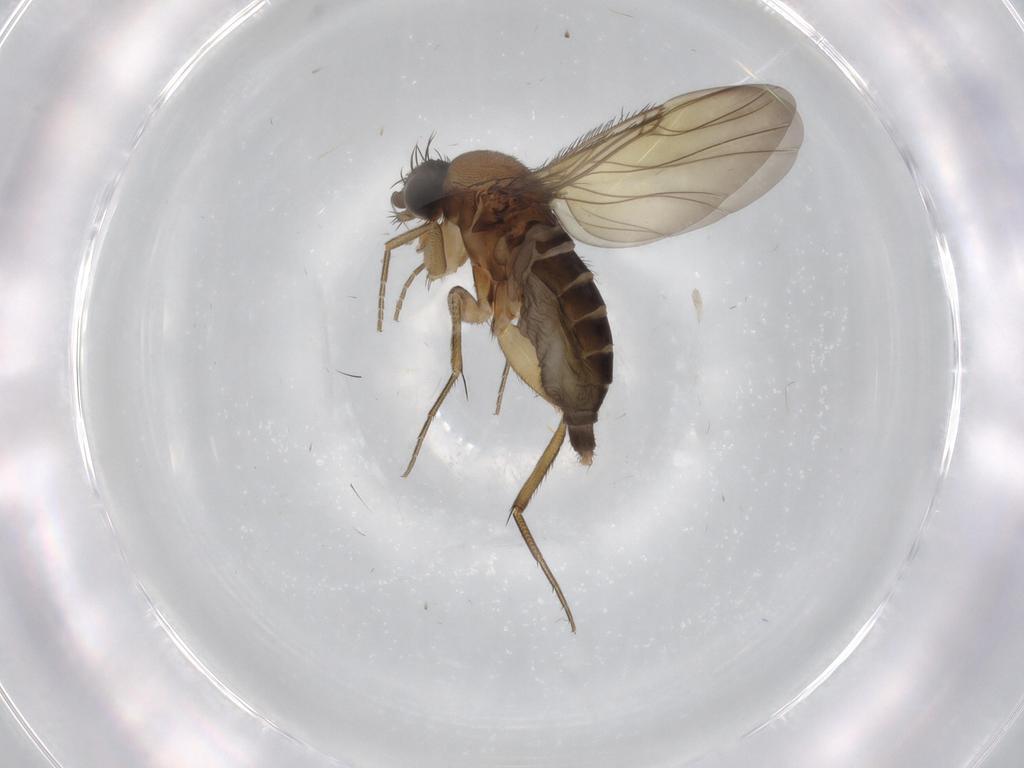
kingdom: Animalia
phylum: Arthropoda
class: Insecta
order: Diptera
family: Phoridae
